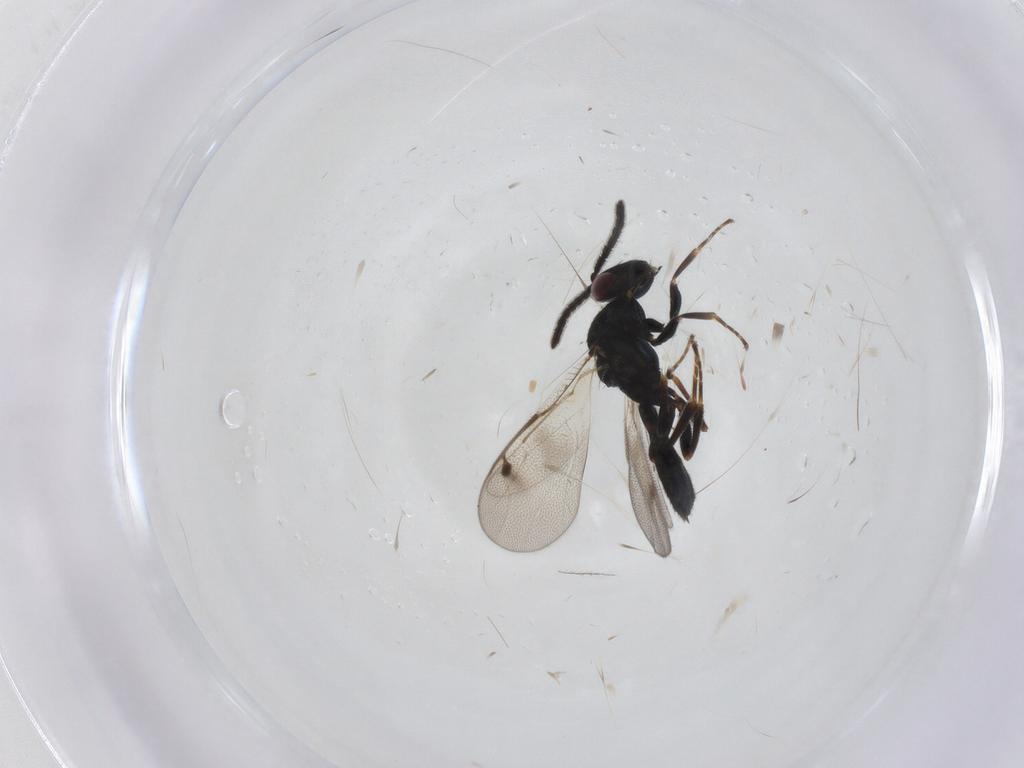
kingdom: Animalia
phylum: Arthropoda
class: Insecta
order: Hymenoptera
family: Pteromalidae
